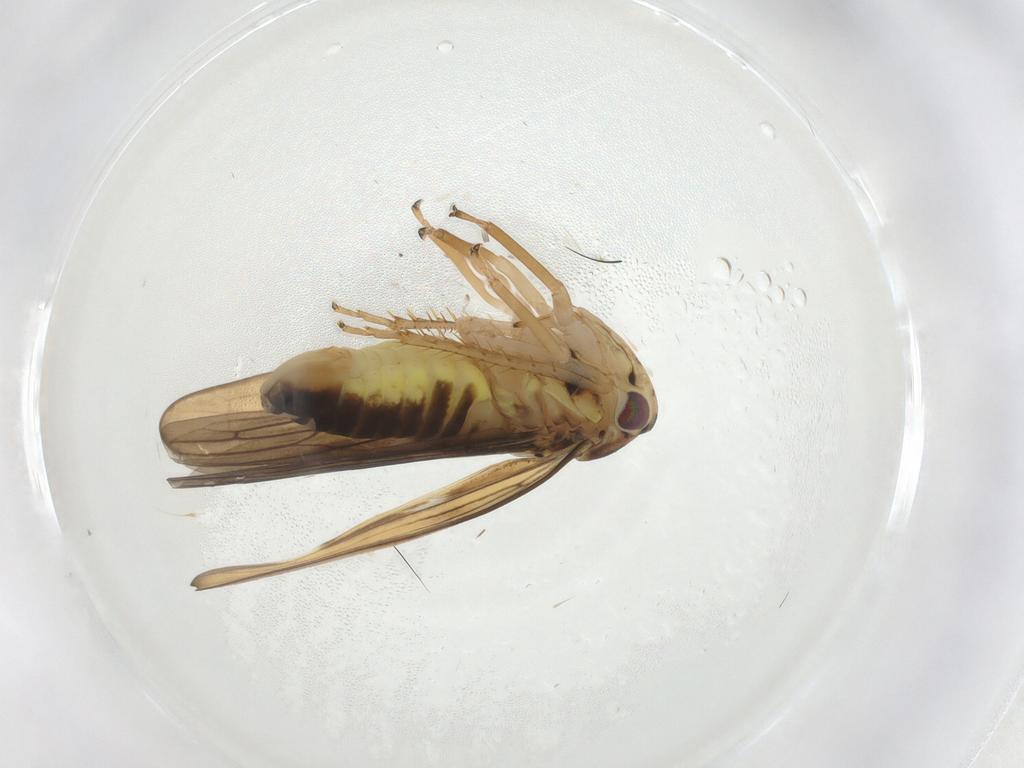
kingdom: Animalia
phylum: Arthropoda
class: Insecta
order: Hemiptera
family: Cicadellidae
